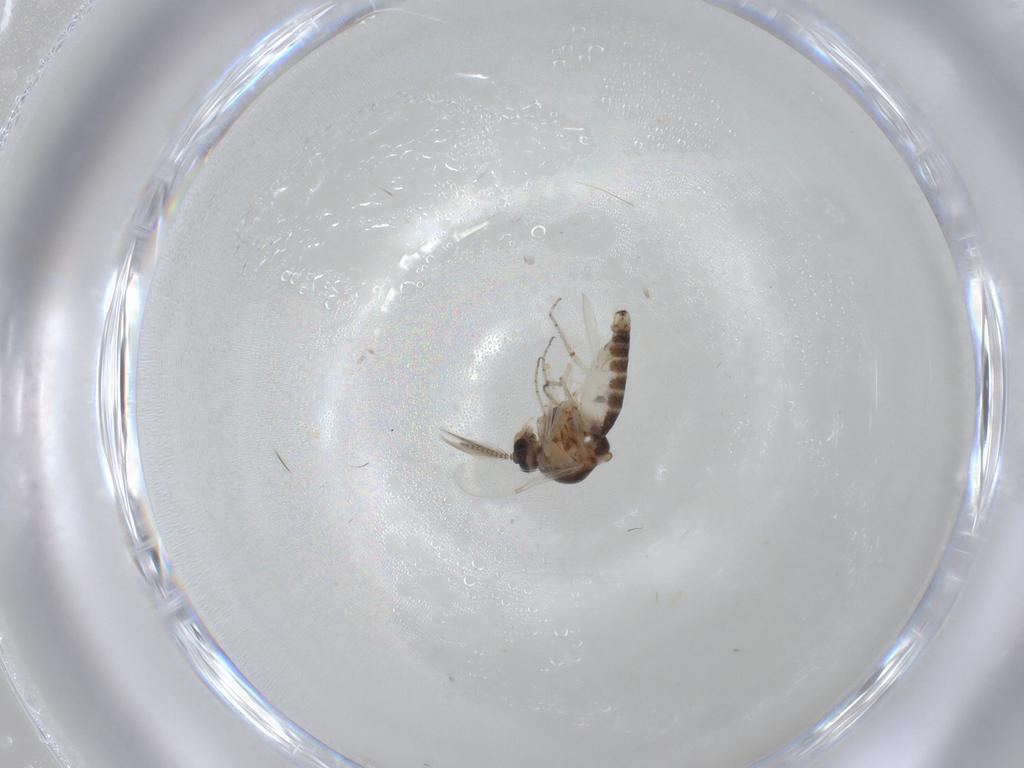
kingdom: Animalia
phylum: Arthropoda
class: Insecta
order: Diptera
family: Ceratopogonidae
